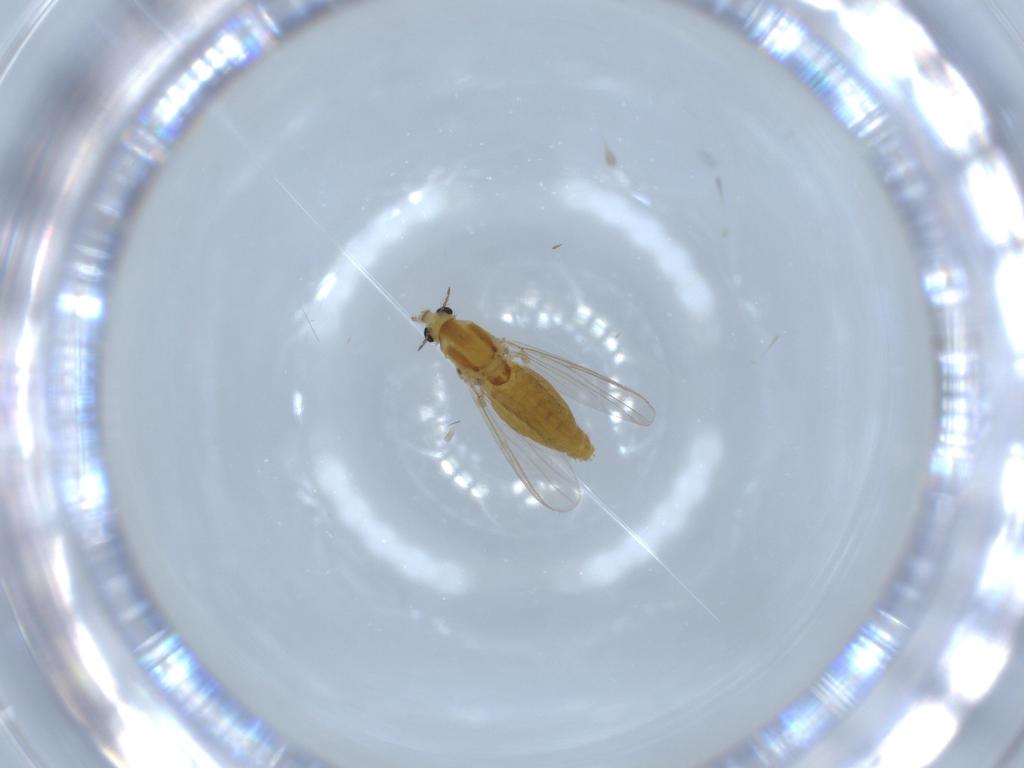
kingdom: Animalia
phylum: Arthropoda
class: Insecta
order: Diptera
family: Chironomidae
